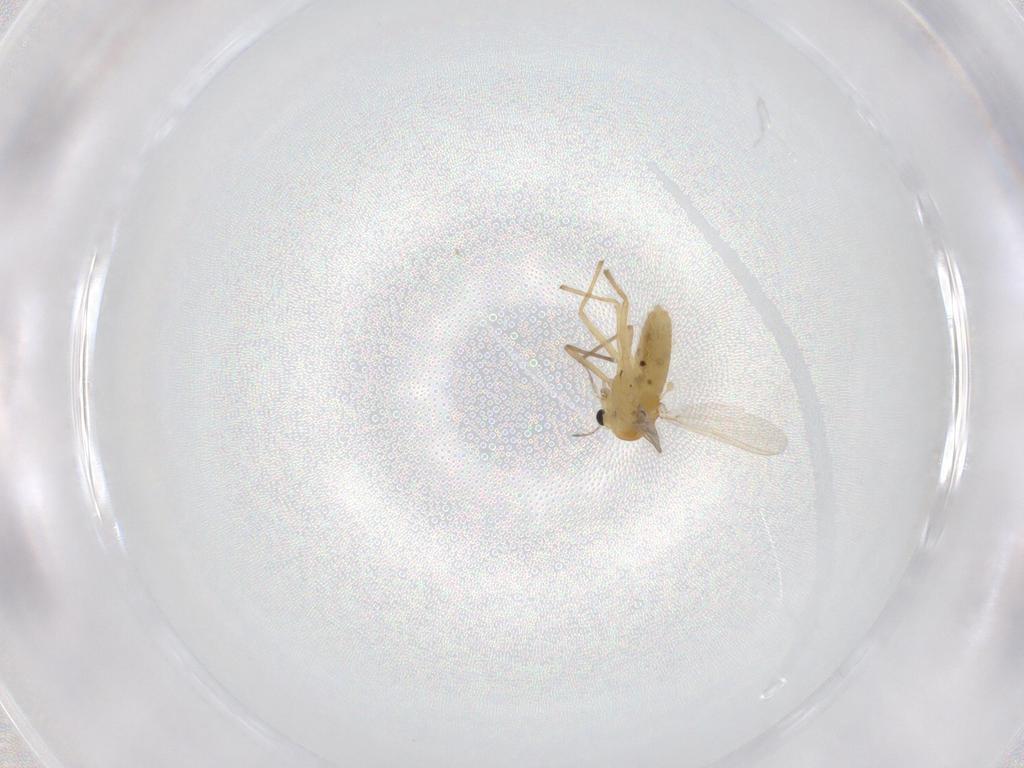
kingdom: Animalia
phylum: Arthropoda
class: Insecta
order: Diptera
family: Chironomidae
